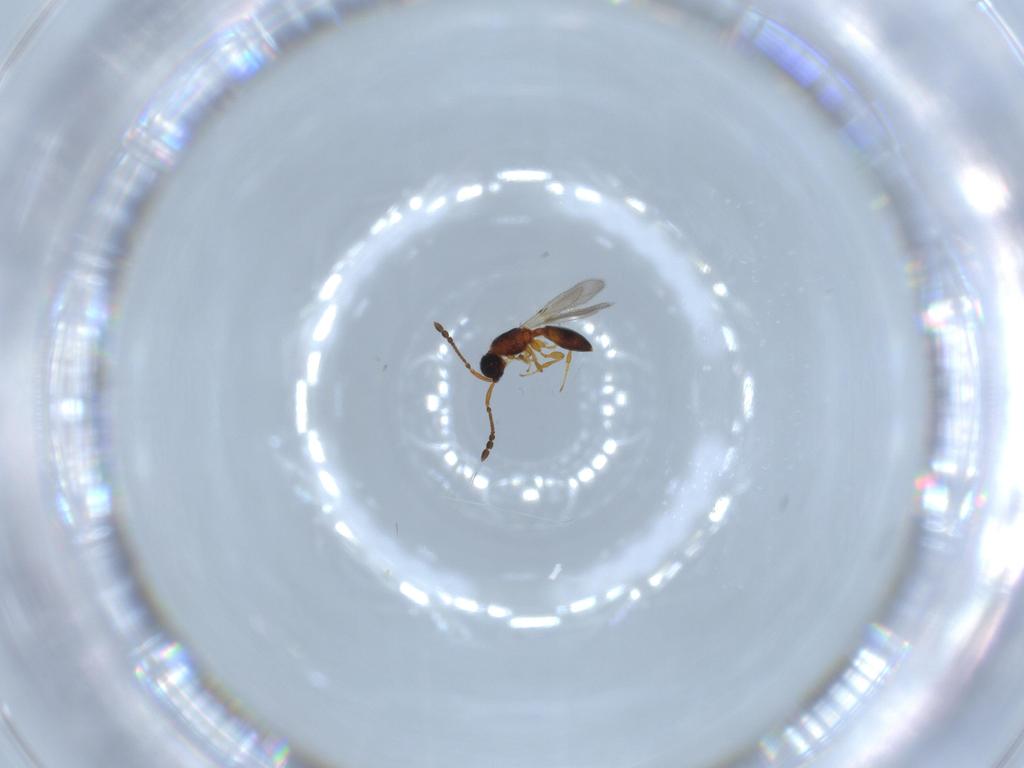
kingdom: Animalia
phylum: Arthropoda
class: Insecta
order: Hymenoptera
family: Diapriidae
